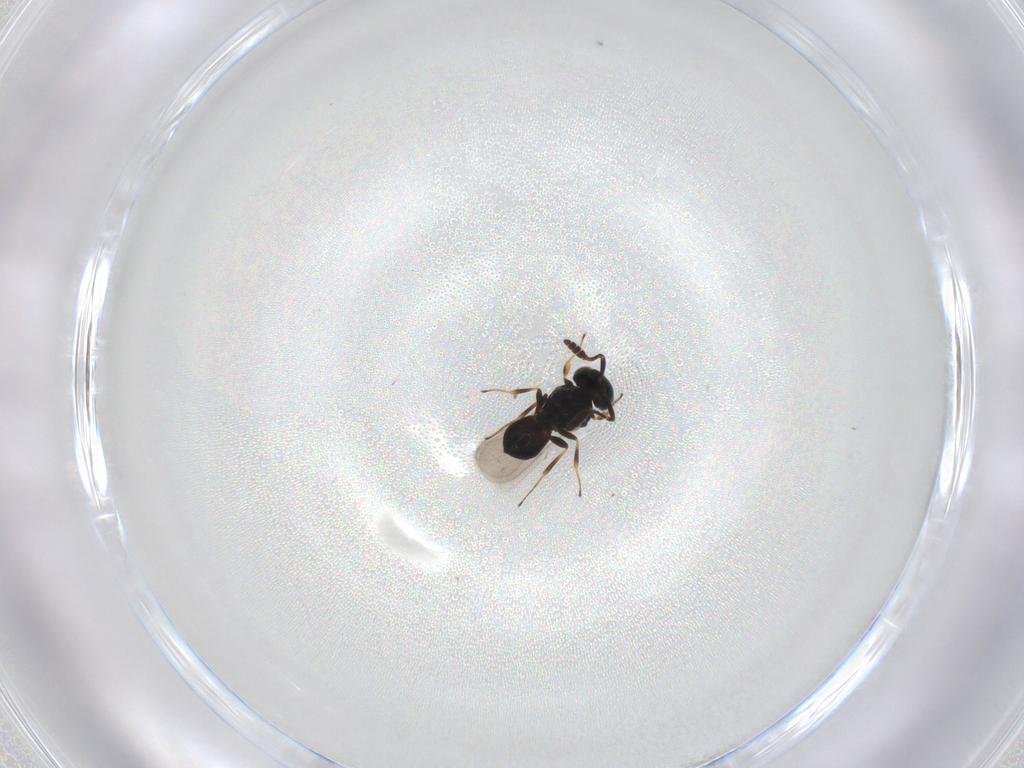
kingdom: Animalia
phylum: Arthropoda
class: Insecta
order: Hymenoptera
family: Scelionidae
